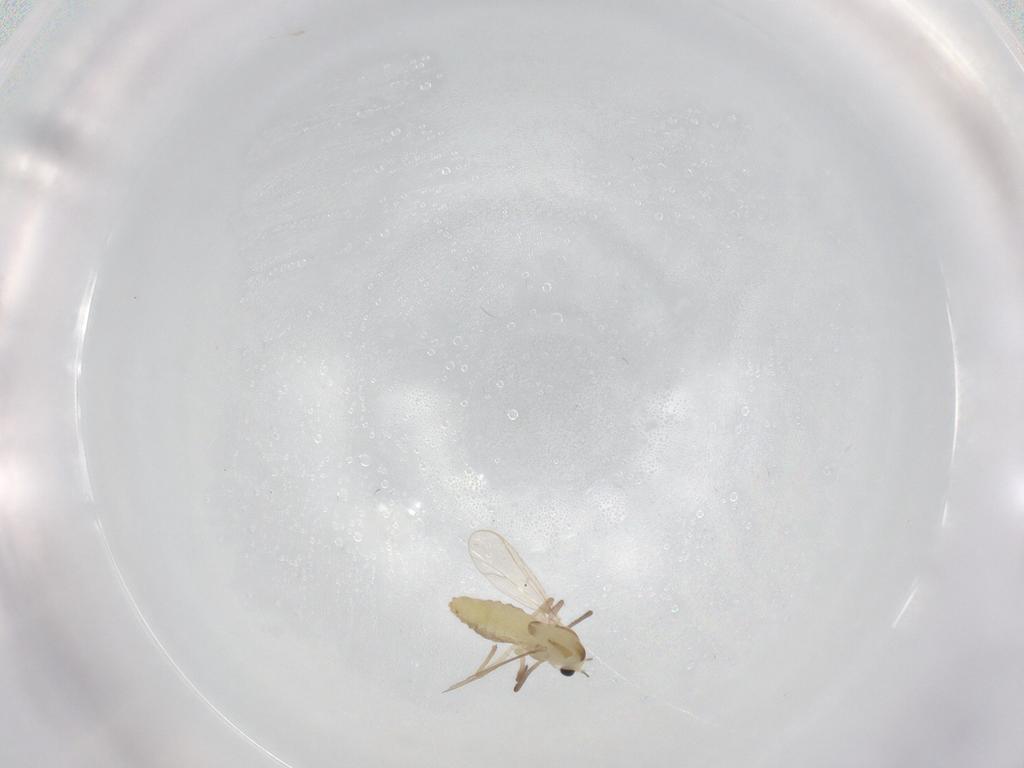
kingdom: Animalia
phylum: Arthropoda
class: Insecta
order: Diptera
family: Chironomidae
